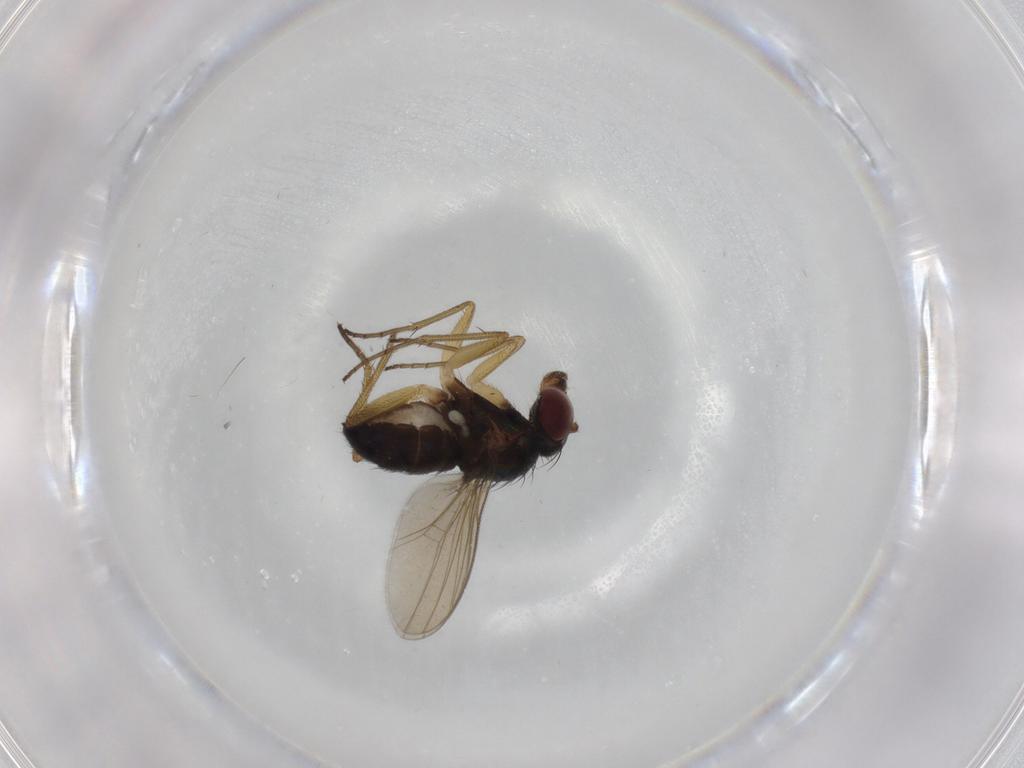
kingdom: Animalia
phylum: Arthropoda
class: Insecta
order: Diptera
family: Dolichopodidae
